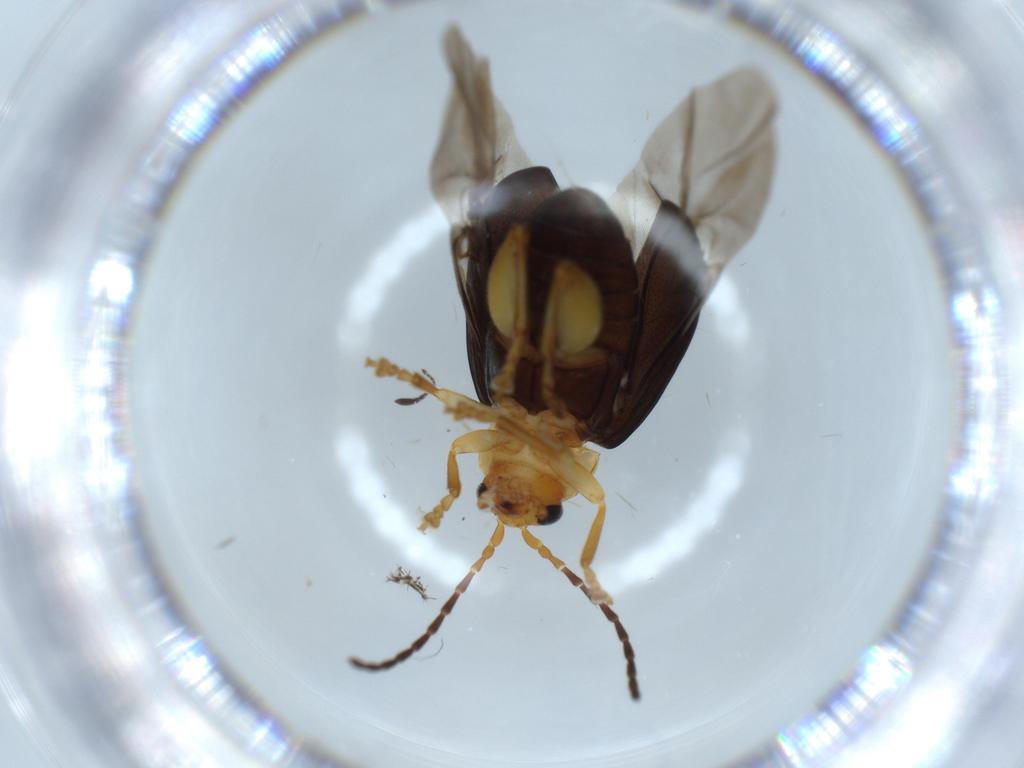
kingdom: Animalia
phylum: Arthropoda
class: Insecta
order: Coleoptera
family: Chrysomelidae
